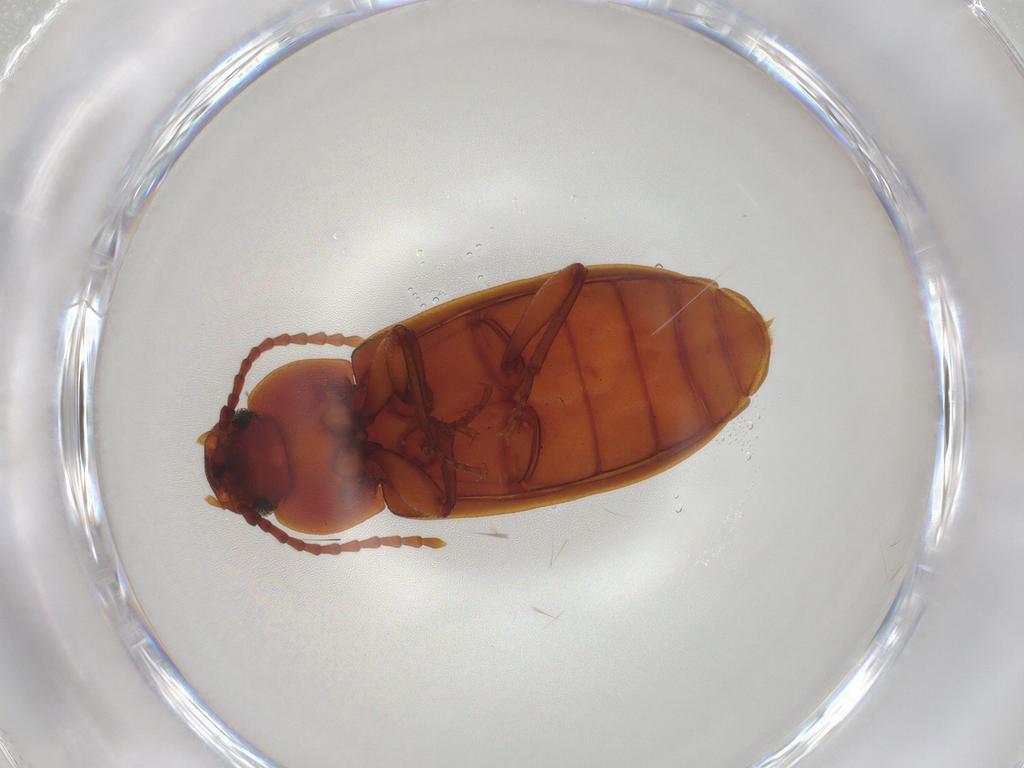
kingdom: Animalia
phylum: Arthropoda
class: Insecta
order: Coleoptera
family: Tenebrionidae
